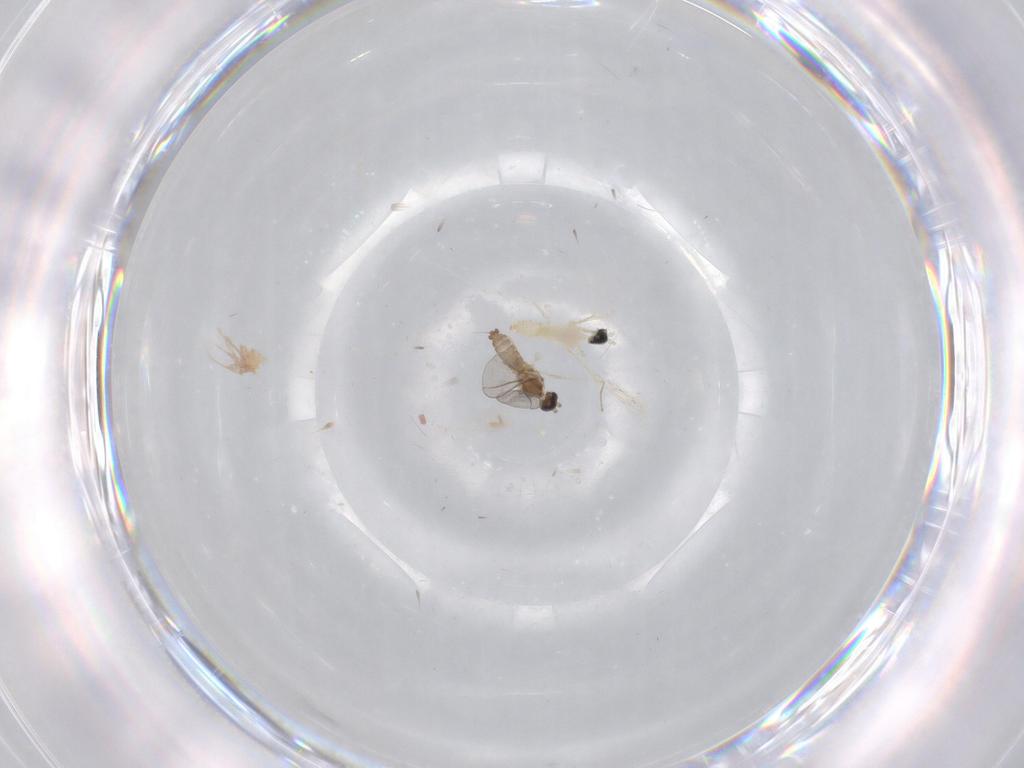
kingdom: Animalia
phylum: Arthropoda
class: Insecta
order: Diptera
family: Cecidomyiidae
